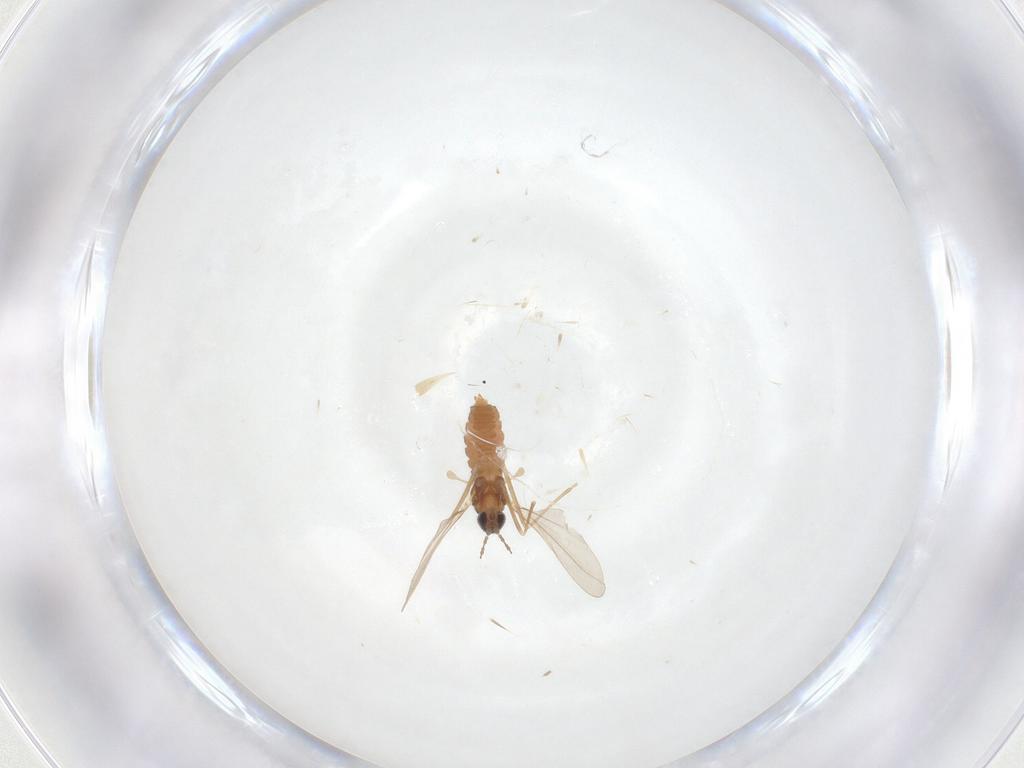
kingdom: Animalia
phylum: Arthropoda
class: Insecta
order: Diptera
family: Cecidomyiidae
